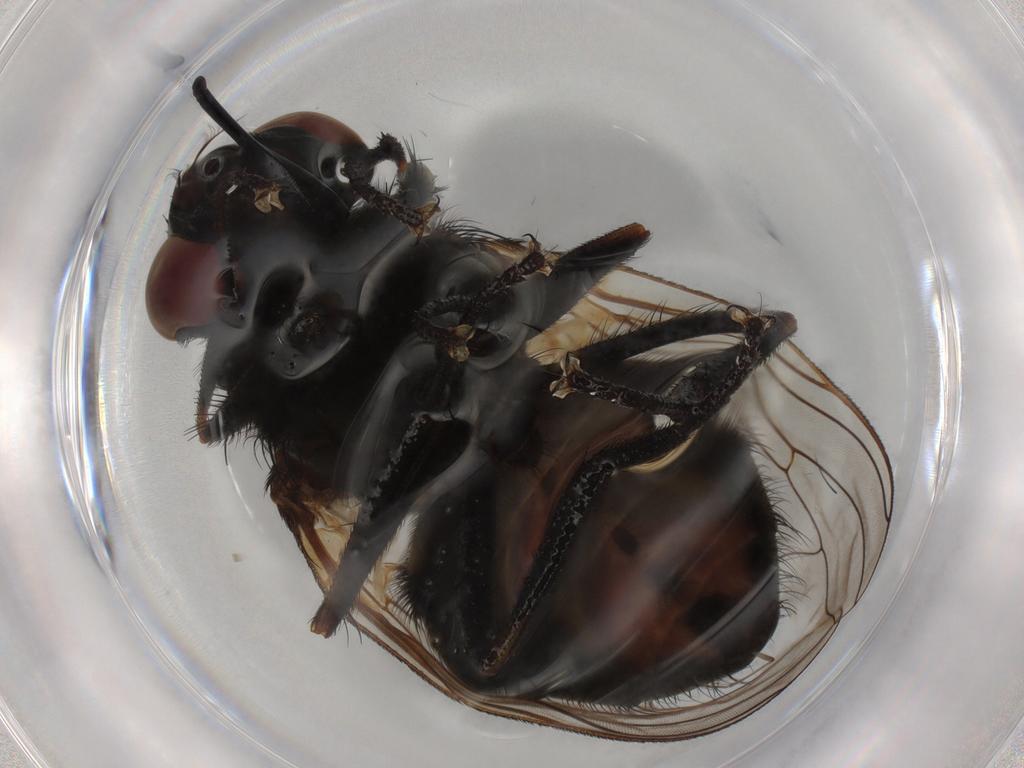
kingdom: Animalia
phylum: Arthropoda
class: Insecta
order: Diptera
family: Muscidae
